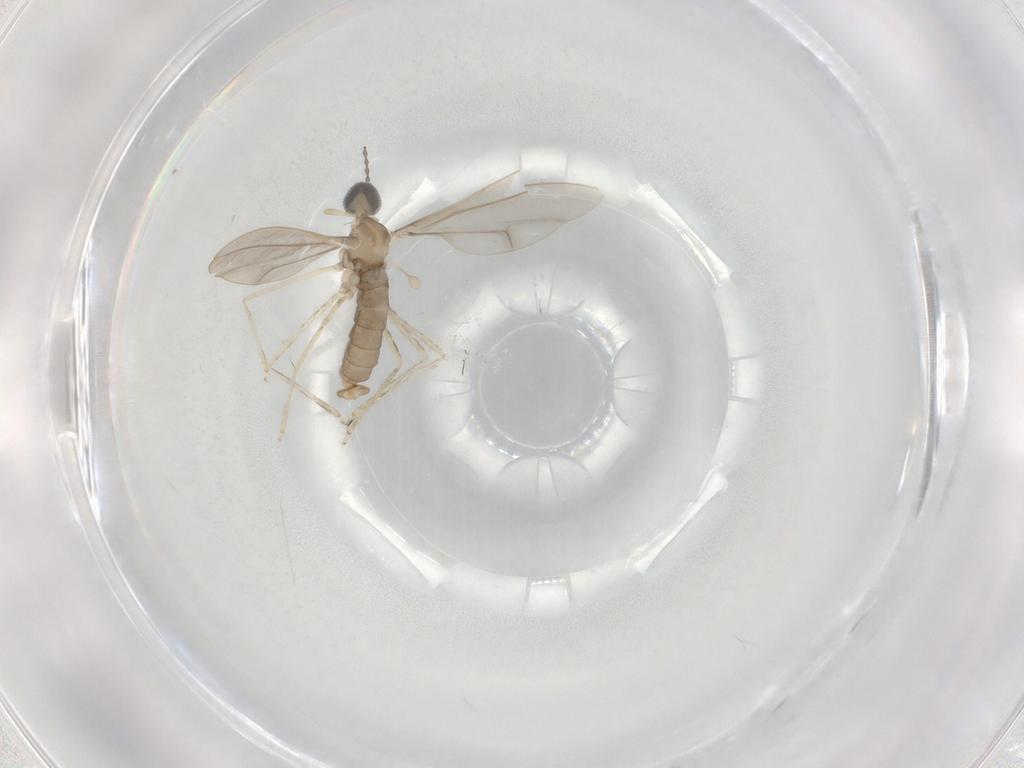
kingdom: Animalia
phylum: Arthropoda
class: Insecta
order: Diptera
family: Cecidomyiidae
